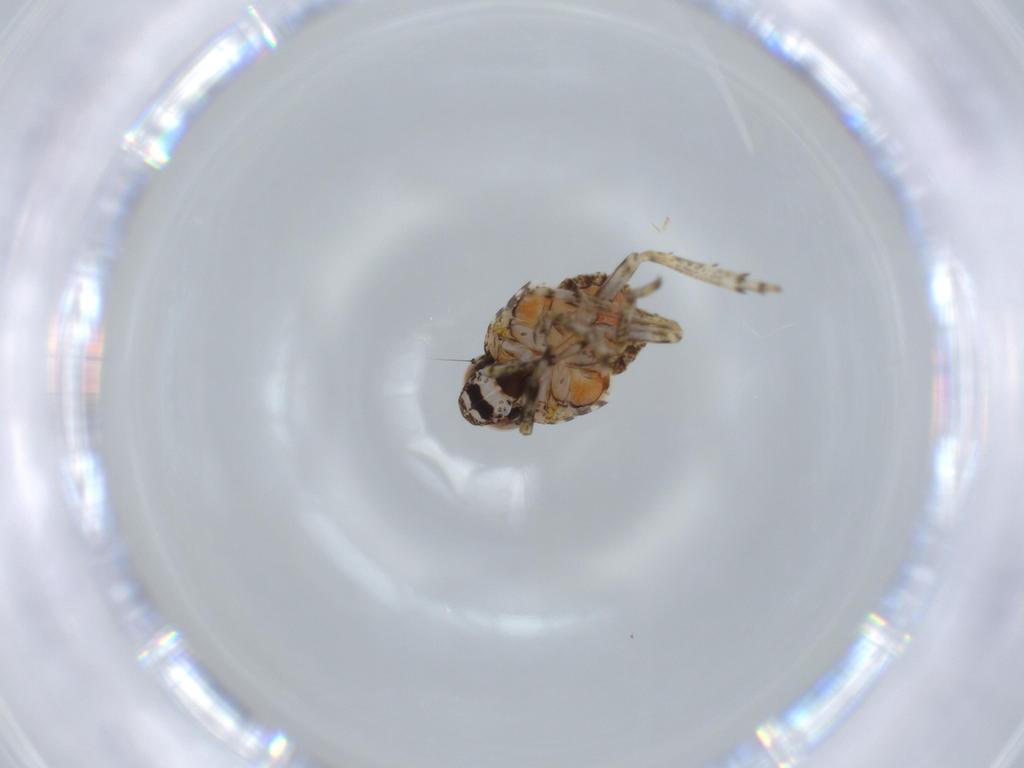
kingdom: Animalia
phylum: Arthropoda
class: Insecta
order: Hemiptera
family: Issidae
